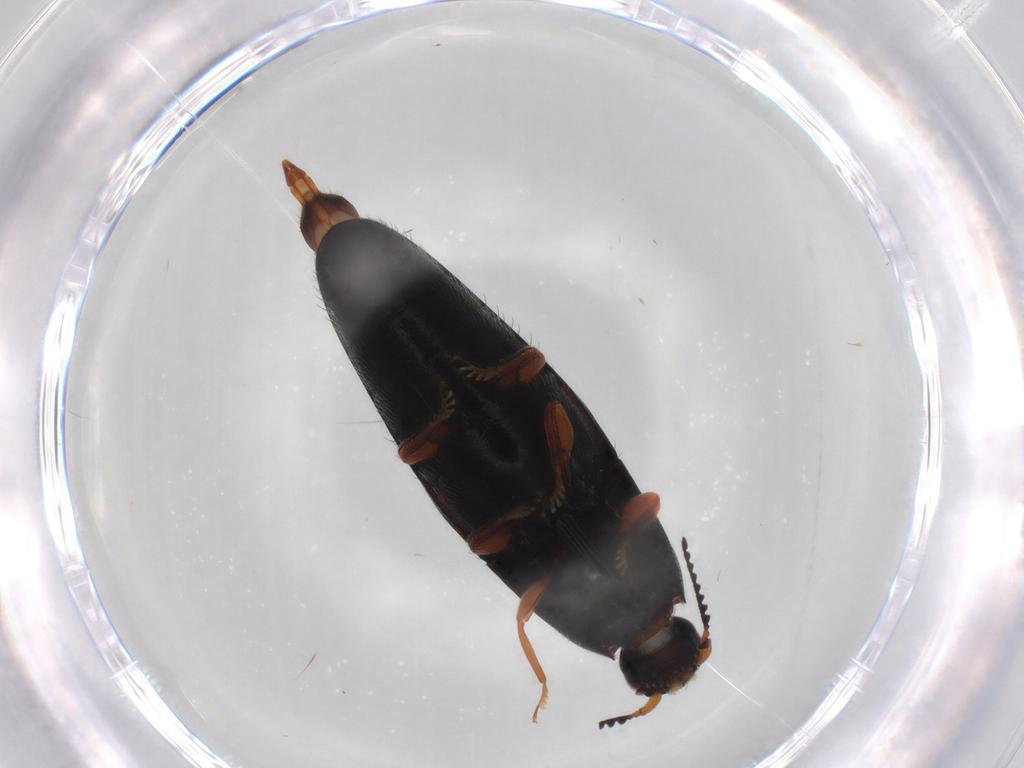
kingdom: Animalia
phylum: Arthropoda
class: Insecta
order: Coleoptera
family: Elateridae
